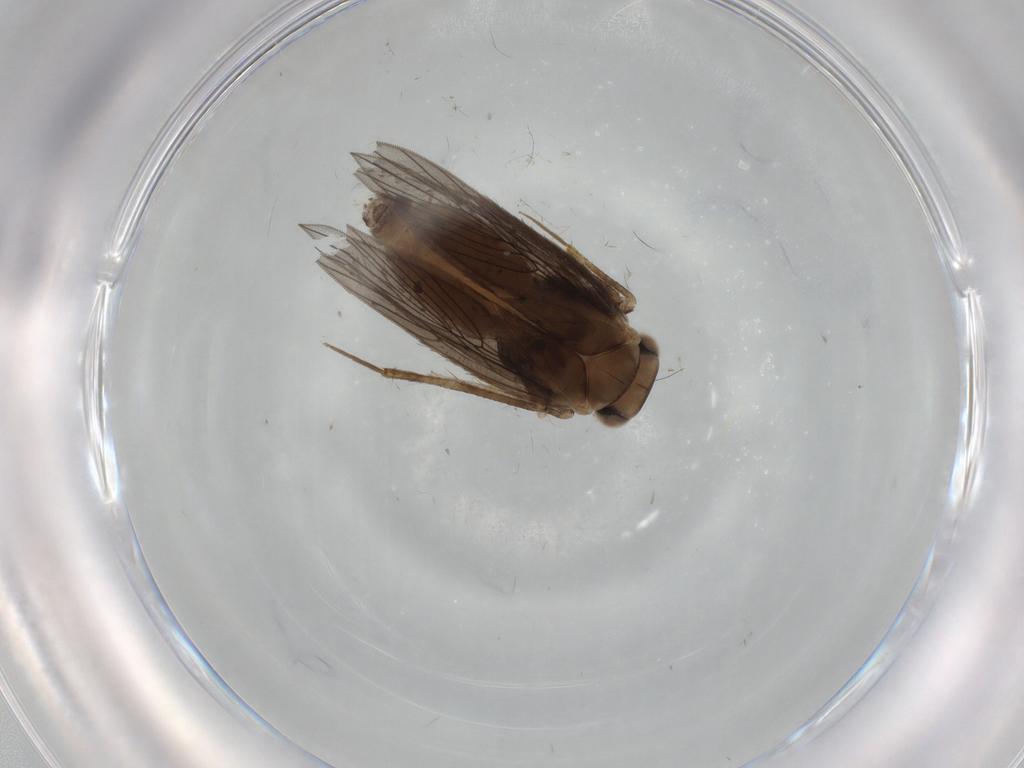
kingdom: Animalia
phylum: Arthropoda
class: Insecta
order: Psocodea
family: Lepidopsocidae
